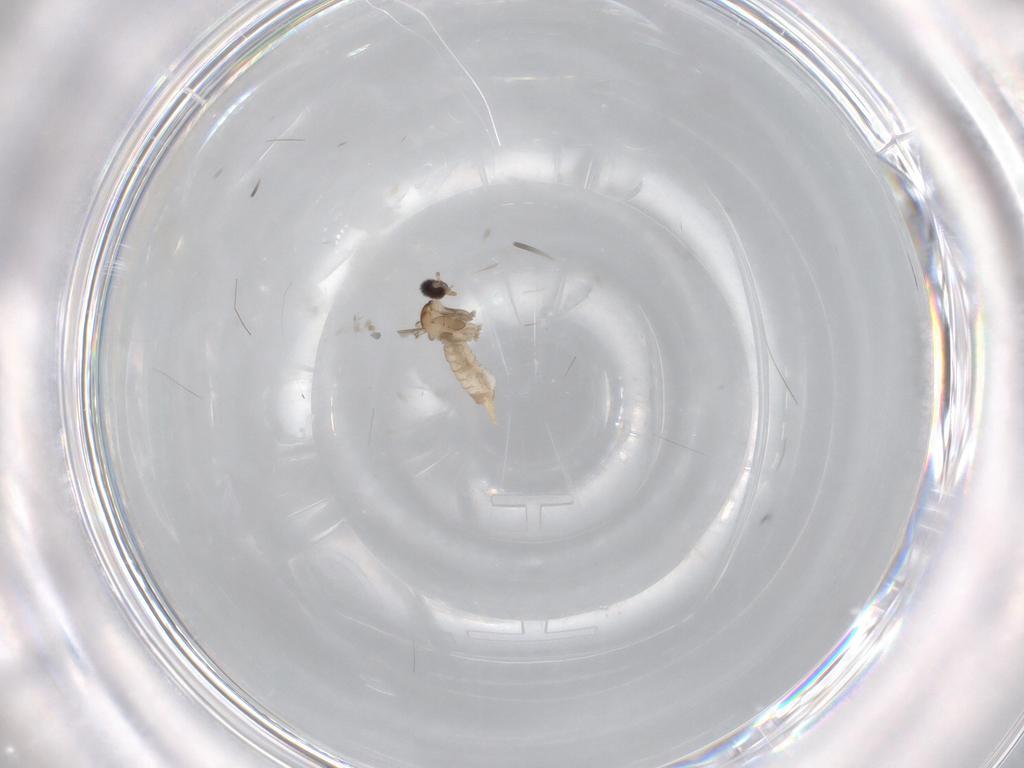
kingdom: Animalia
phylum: Arthropoda
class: Insecta
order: Diptera
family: Cecidomyiidae
